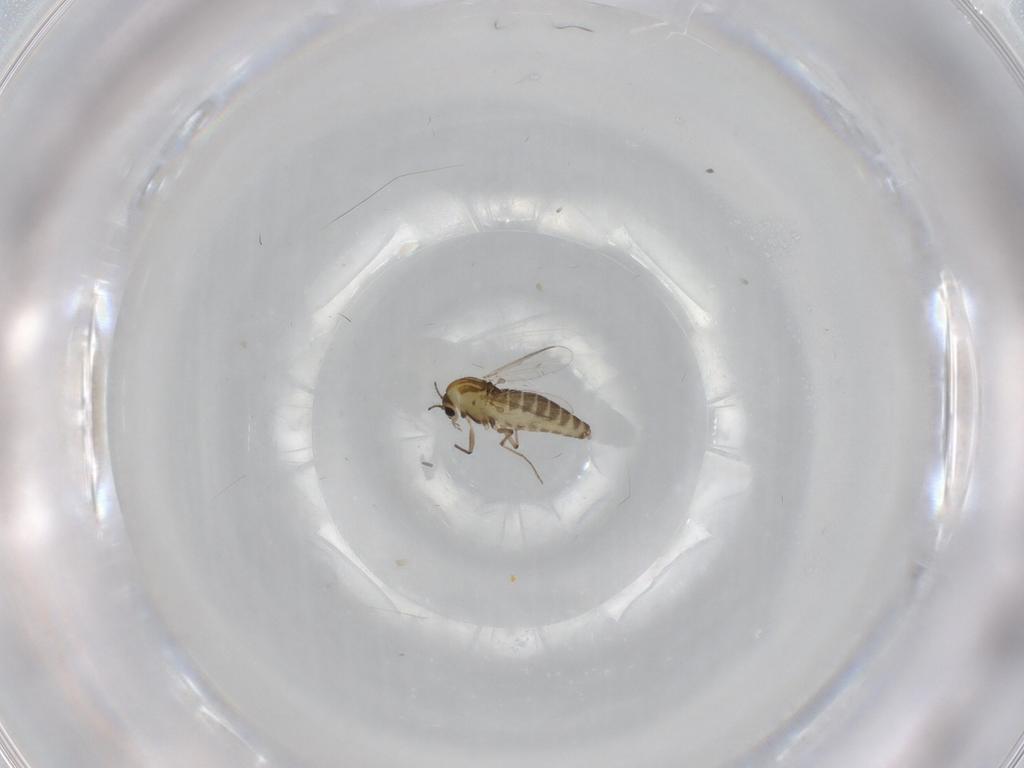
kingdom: Animalia
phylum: Arthropoda
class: Insecta
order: Diptera
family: Chironomidae
